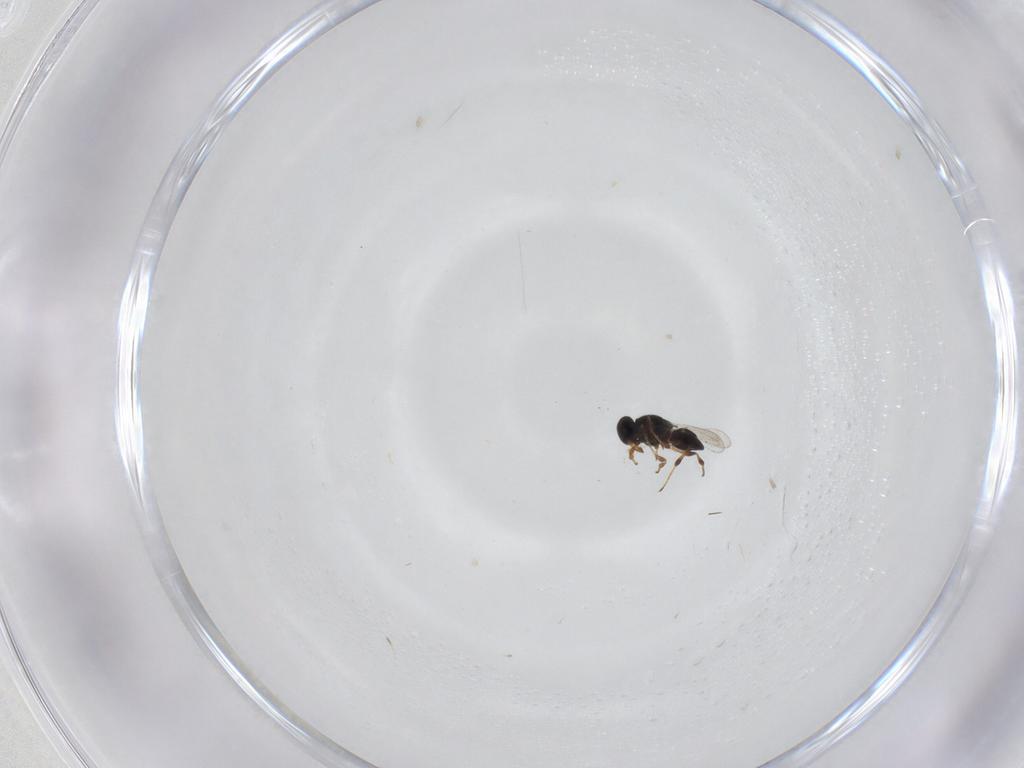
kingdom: Animalia
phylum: Arthropoda
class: Insecta
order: Hymenoptera
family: Platygastridae
